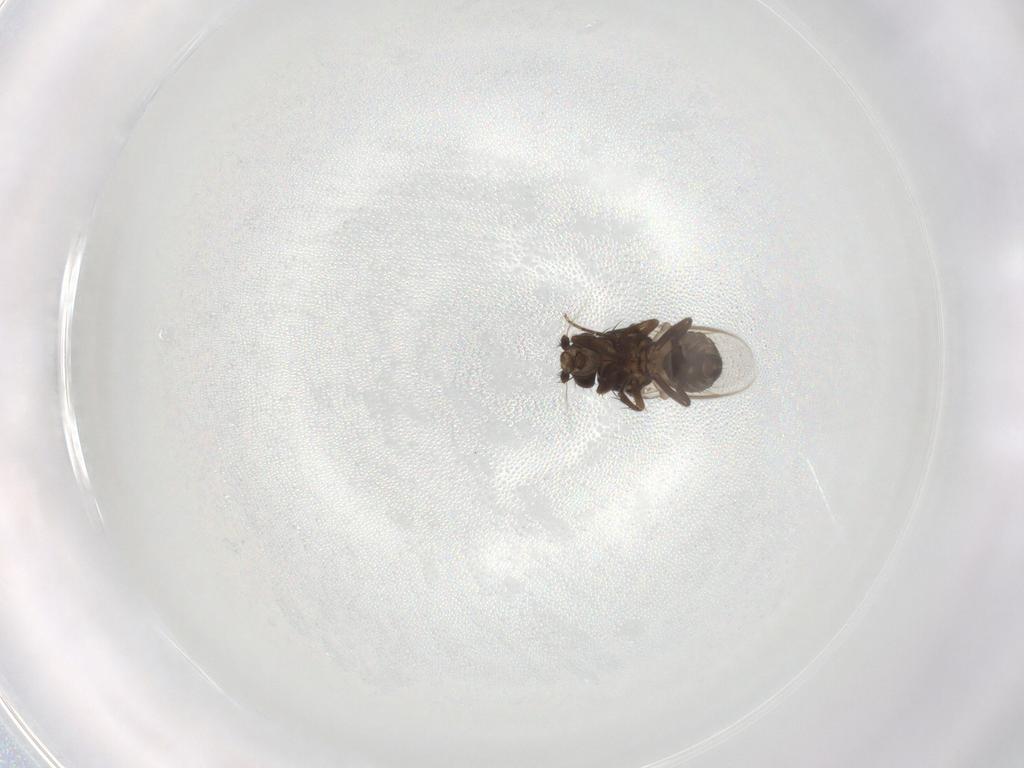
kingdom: Animalia
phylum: Arthropoda
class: Insecta
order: Diptera
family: Sphaeroceridae
